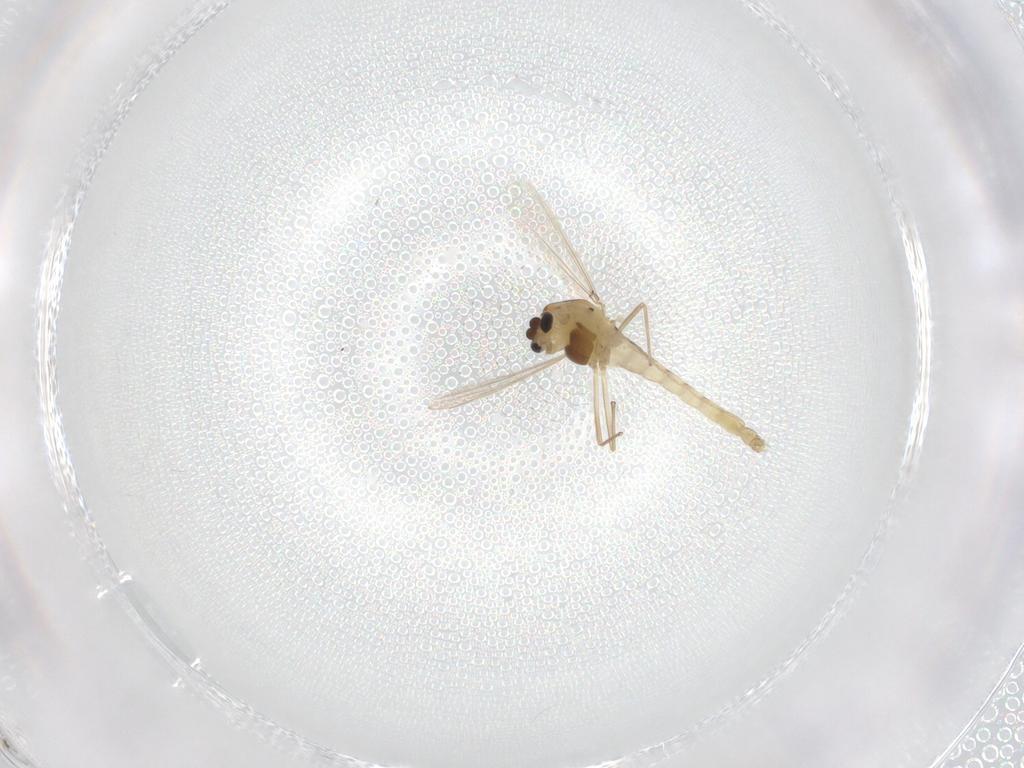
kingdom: Animalia
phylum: Arthropoda
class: Insecta
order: Diptera
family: Chironomidae
